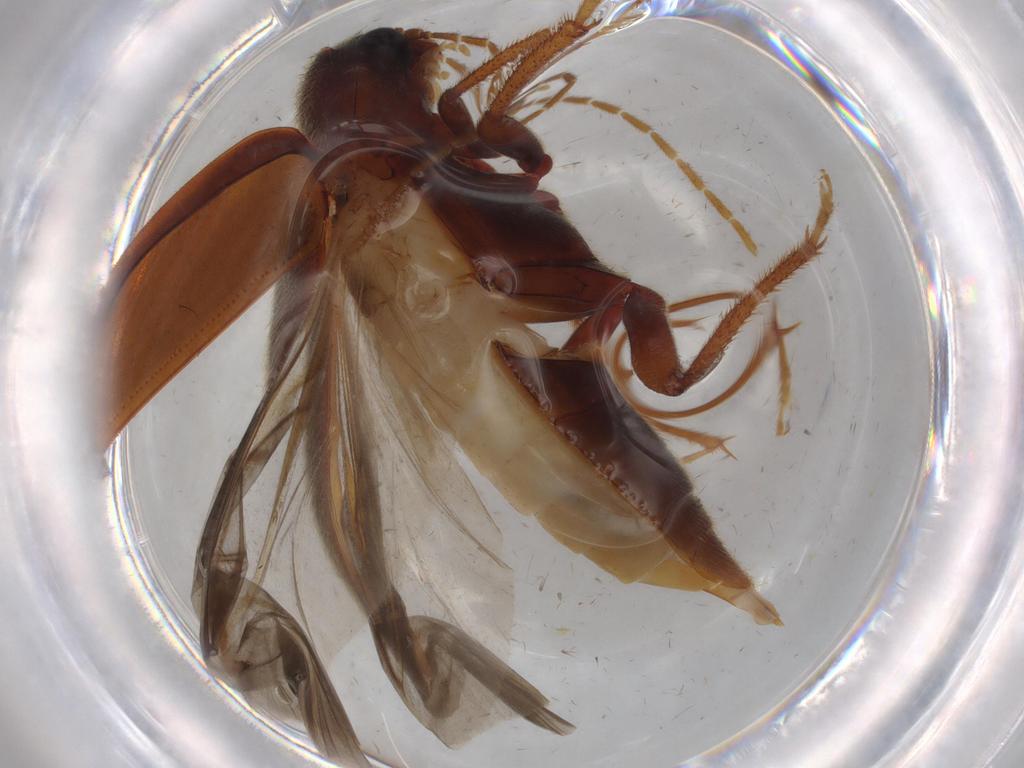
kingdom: Animalia
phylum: Arthropoda
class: Insecta
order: Coleoptera
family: Ptilodactylidae
